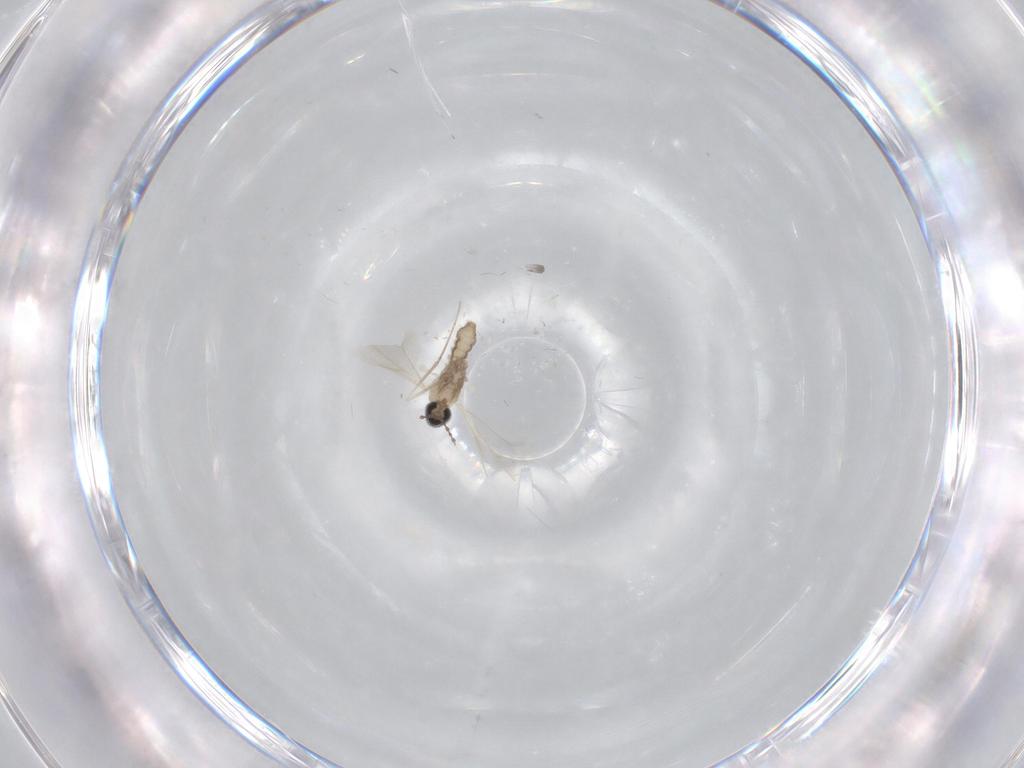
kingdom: Animalia
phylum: Arthropoda
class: Insecta
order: Diptera
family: Cecidomyiidae
